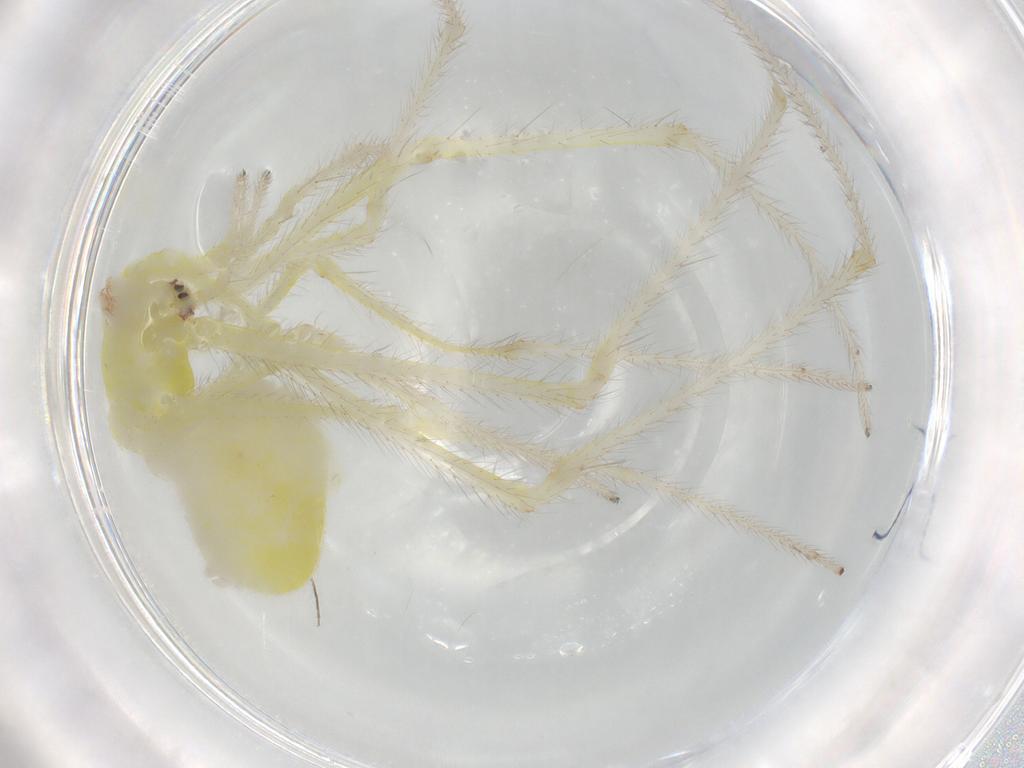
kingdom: Animalia
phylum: Arthropoda
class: Arachnida
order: Araneae
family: Theridiidae
